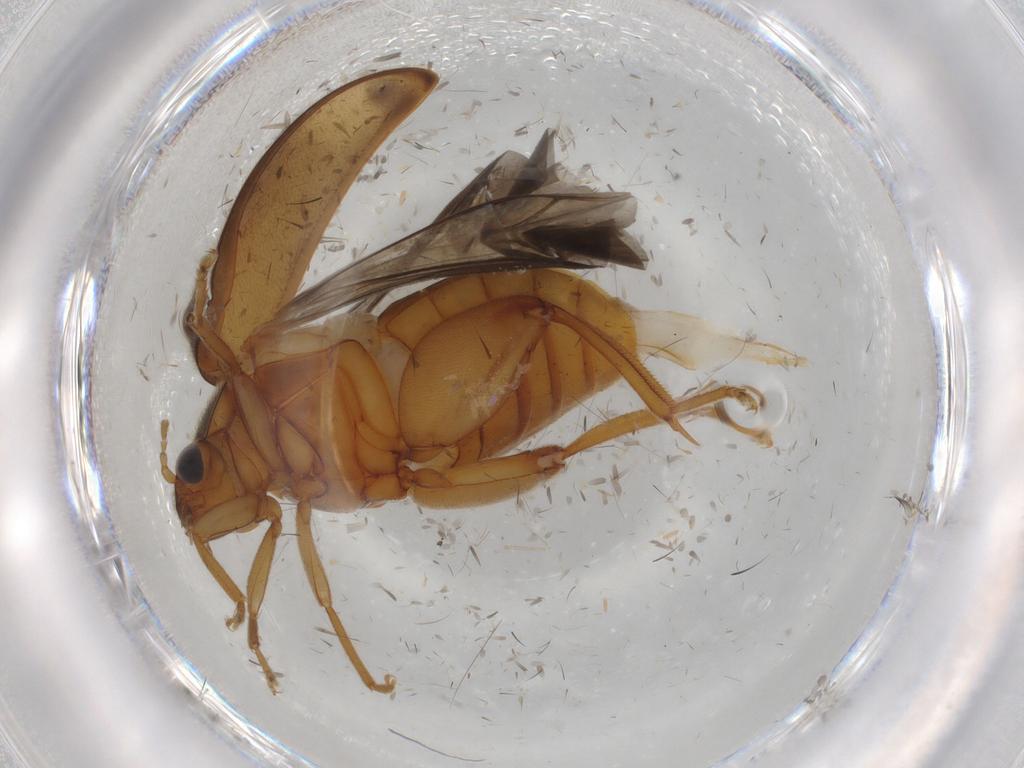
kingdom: Animalia
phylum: Arthropoda
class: Insecta
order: Coleoptera
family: Scirtidae
